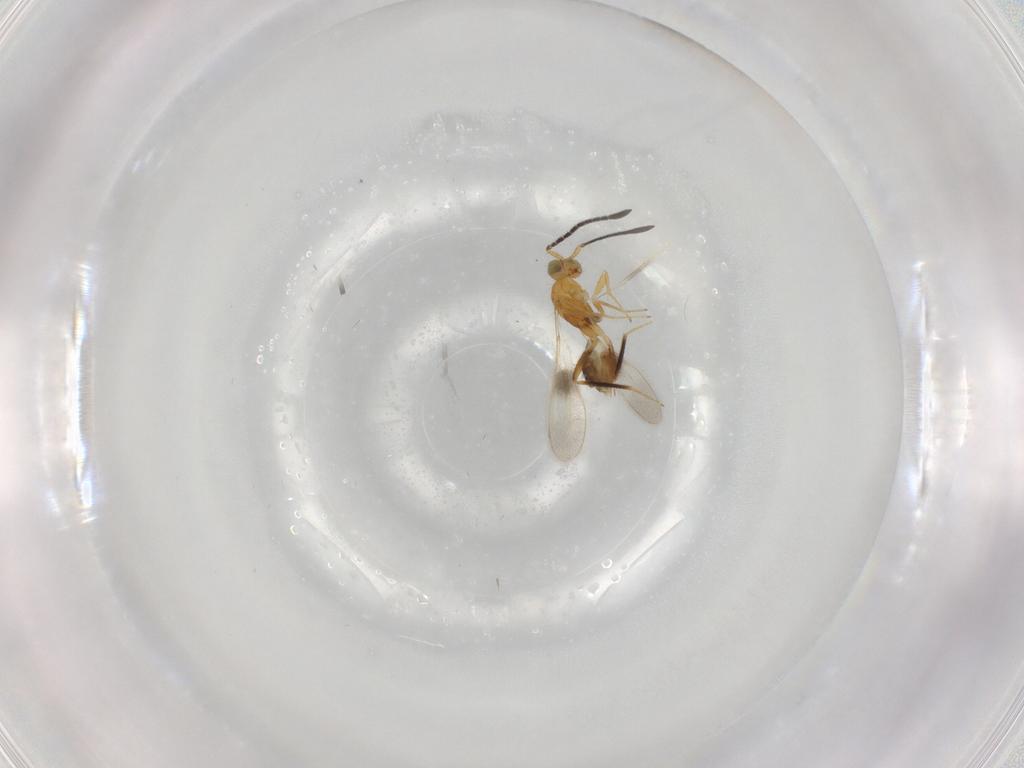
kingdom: Animalia
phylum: Arthropoda
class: Insecta
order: Hymenoptera
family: Mymaridae
